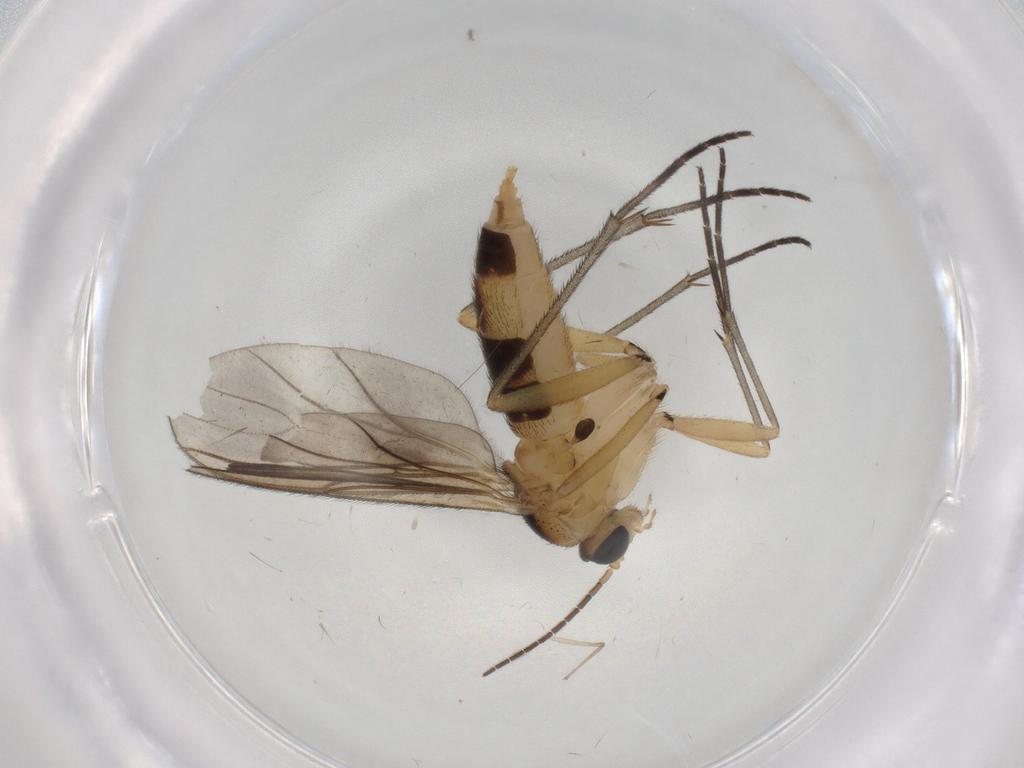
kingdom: Animalia
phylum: Arthropoda
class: Insecta
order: Diptera
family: Sciaridae
